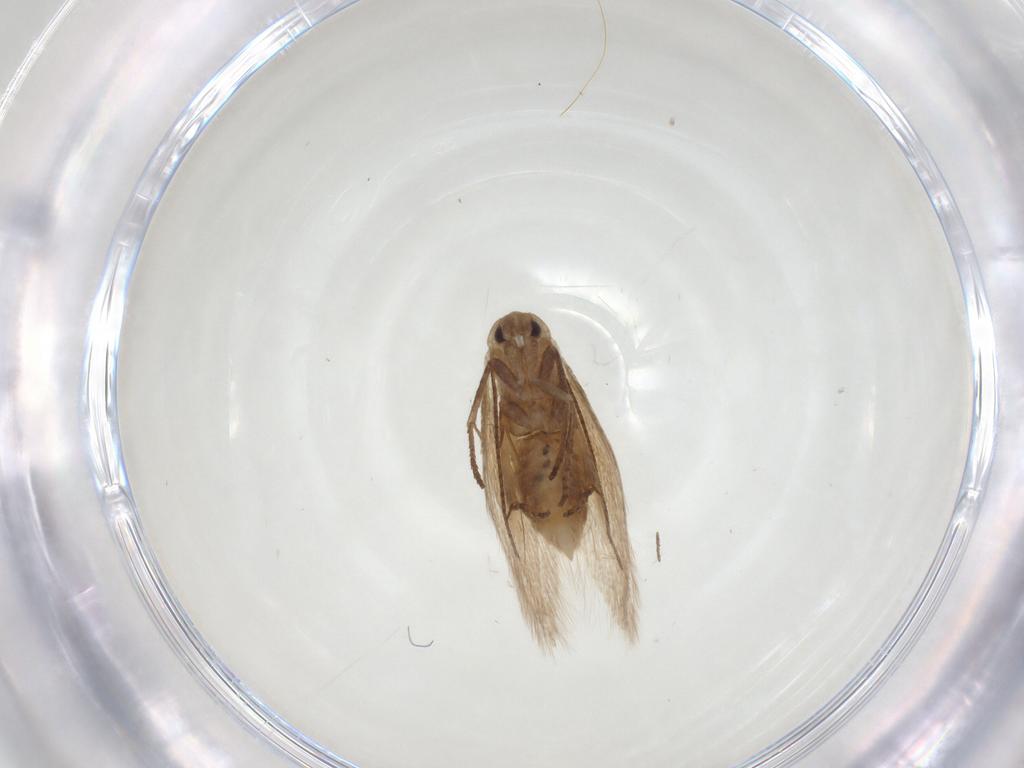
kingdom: Animalia
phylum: Arthropoda
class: Insecta
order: Lepidoptera
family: Bucculatricidae
